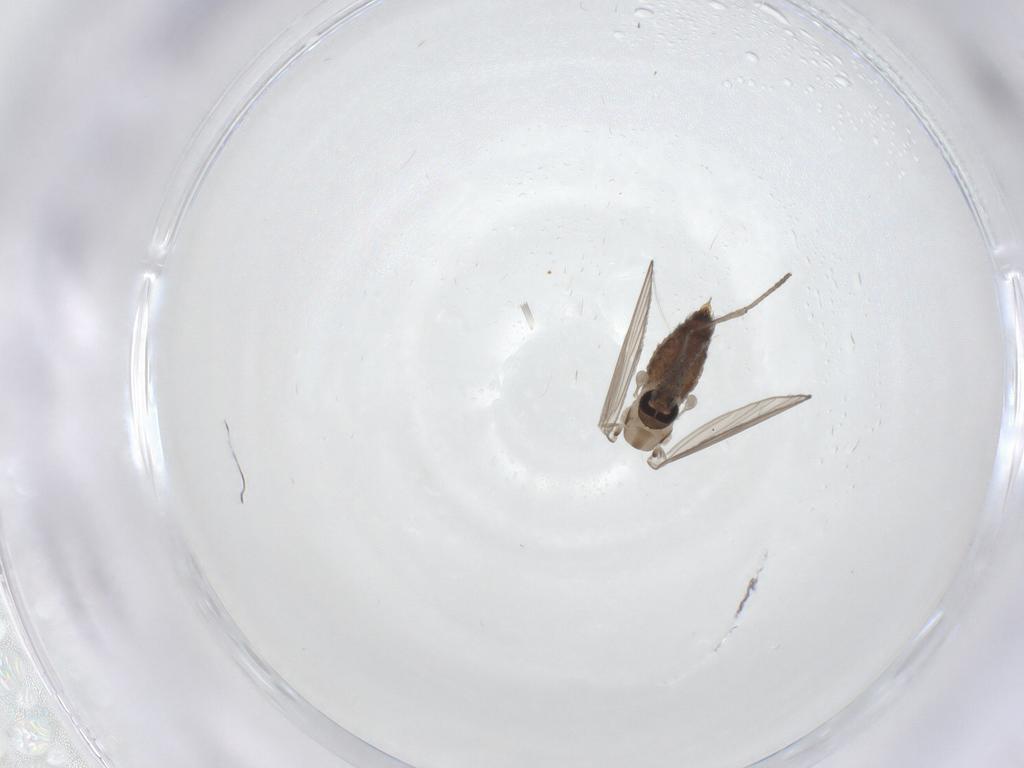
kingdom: Animalia
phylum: Arthropoda
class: Insecta
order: Diptera
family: Psychodidae
